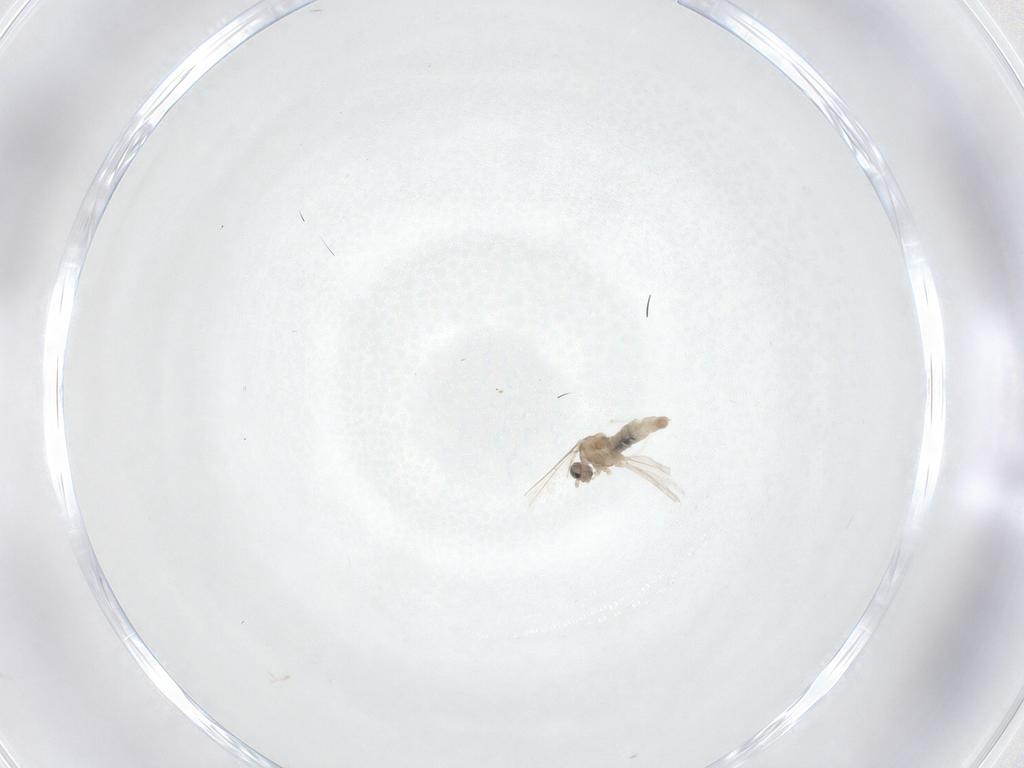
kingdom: Animalia
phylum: Arthropoda
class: Insecta
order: Diptera
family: Cecidomyiidae
